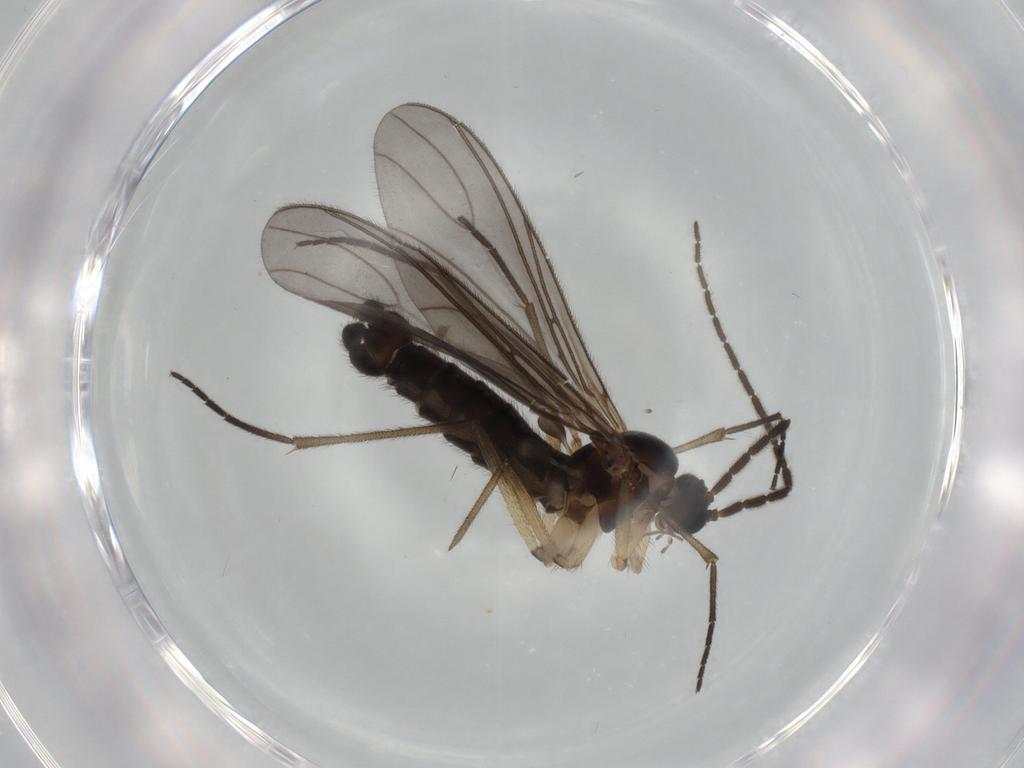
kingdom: Animalia
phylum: Arthropoda
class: Insecta
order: Diptera
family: Sciaridae
